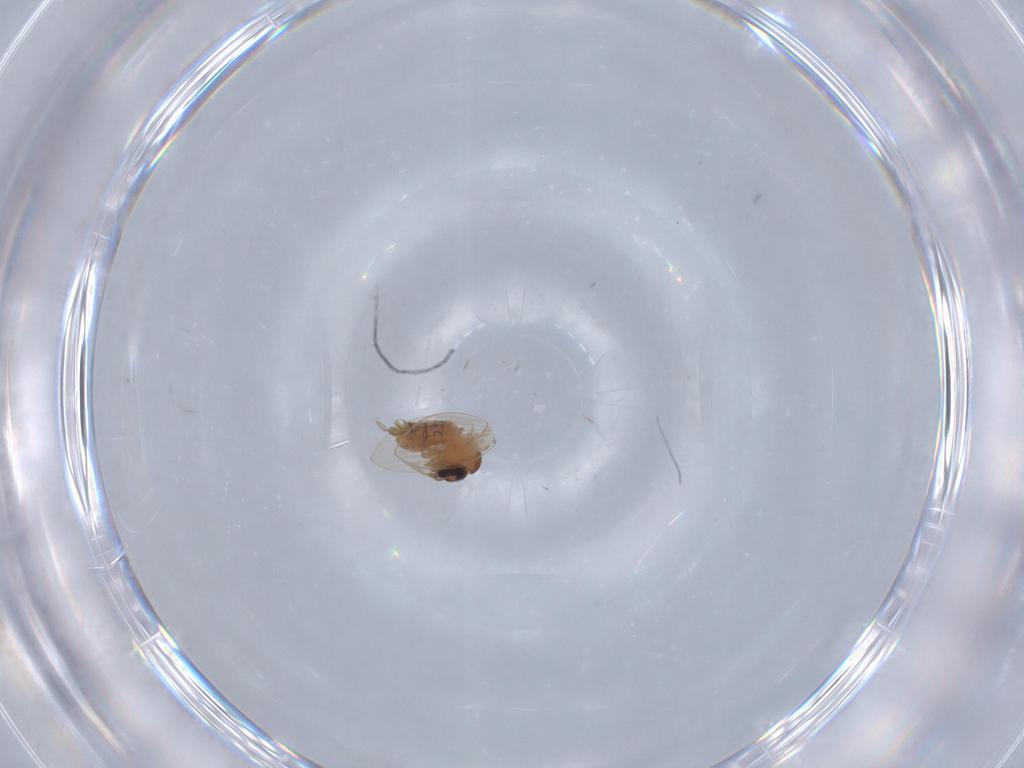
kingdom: Animalia
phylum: Arthropoda
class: Insecta
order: Diptera
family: Psychodidae
